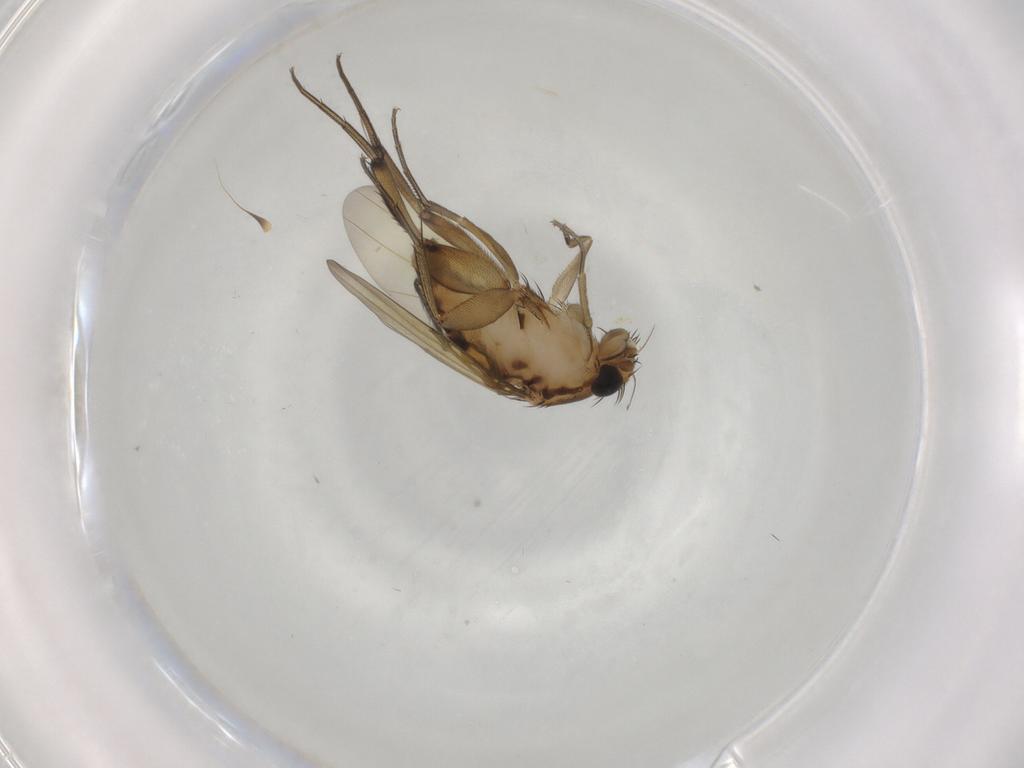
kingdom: Animalia
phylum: Arthropoda
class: Insecta
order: Diptera
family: Phoridae
